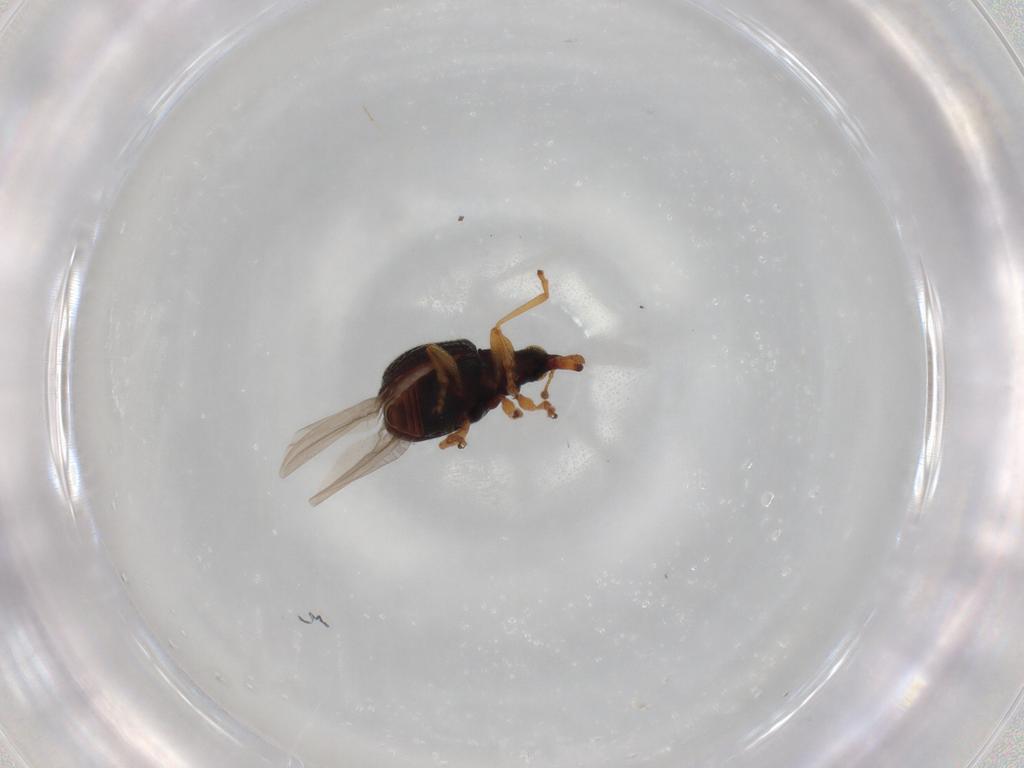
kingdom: Animalia
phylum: Arthropoda
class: Insecta
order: Coleoptera
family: Brentidae
